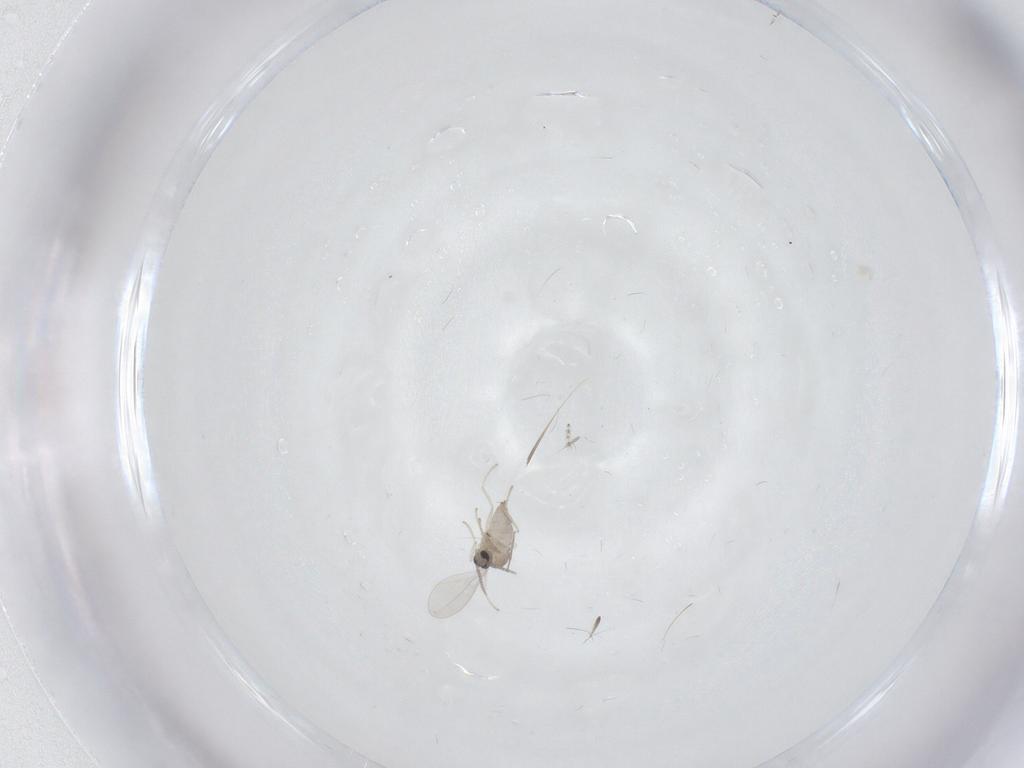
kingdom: Animalia
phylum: Arthropoda
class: Insecta
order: Diptera
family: Cecidomyiidae
